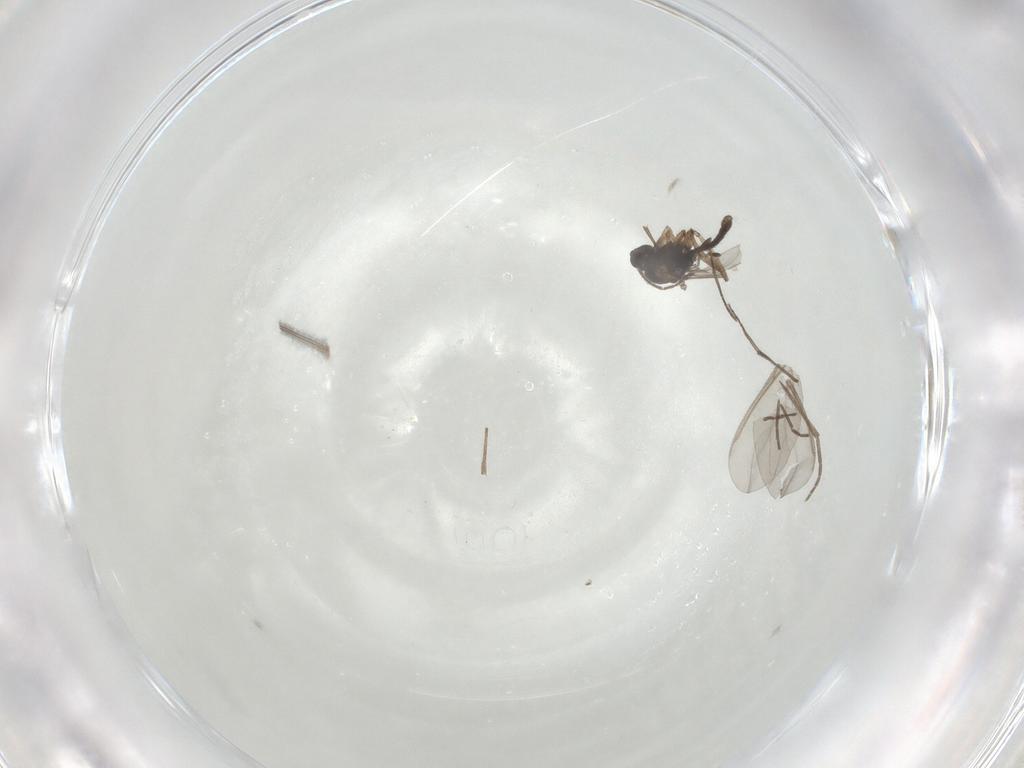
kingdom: Animalia
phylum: Arthropoda
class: Insecta
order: Diptera
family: Sciaridae
